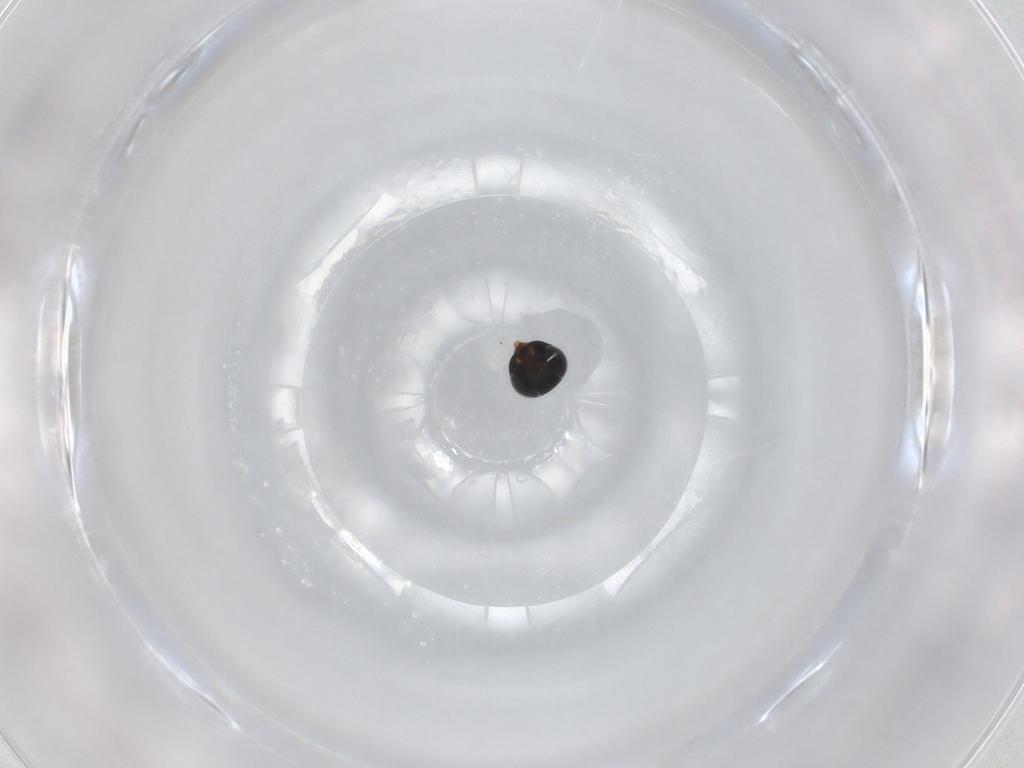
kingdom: Animalia
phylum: Arthropoda
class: Insecta
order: Hymenoptera
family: Encyrtidae
